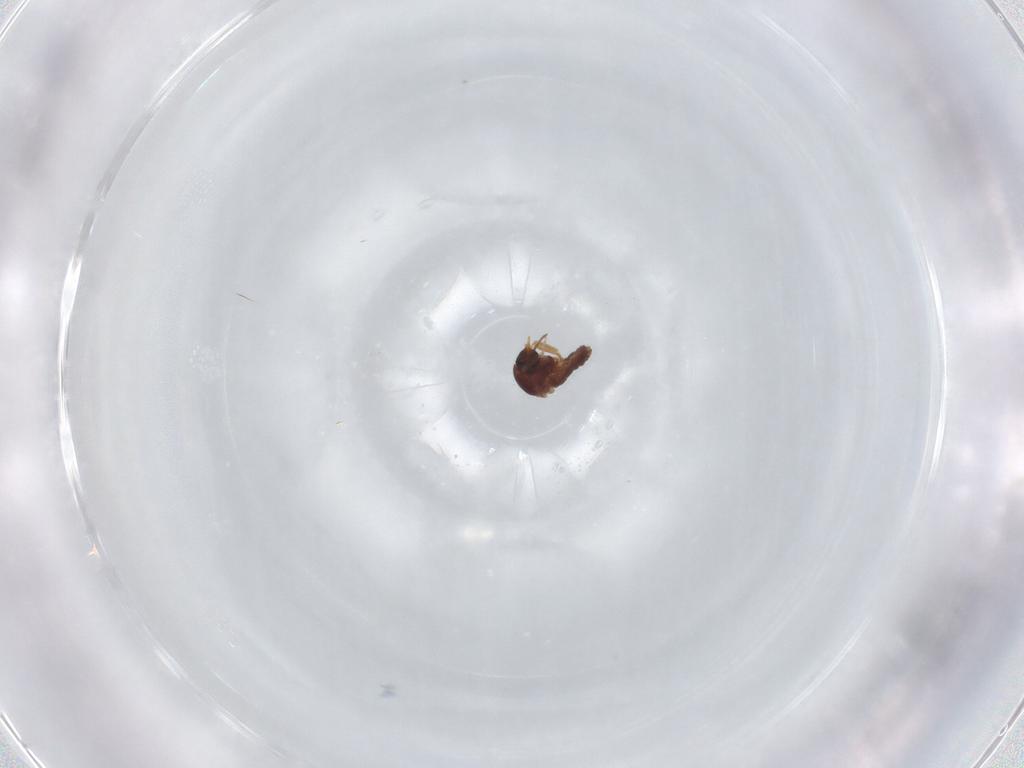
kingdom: Animalia
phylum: Arthropoda
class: Insecta
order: Diptera
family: Ceratopogonidae
